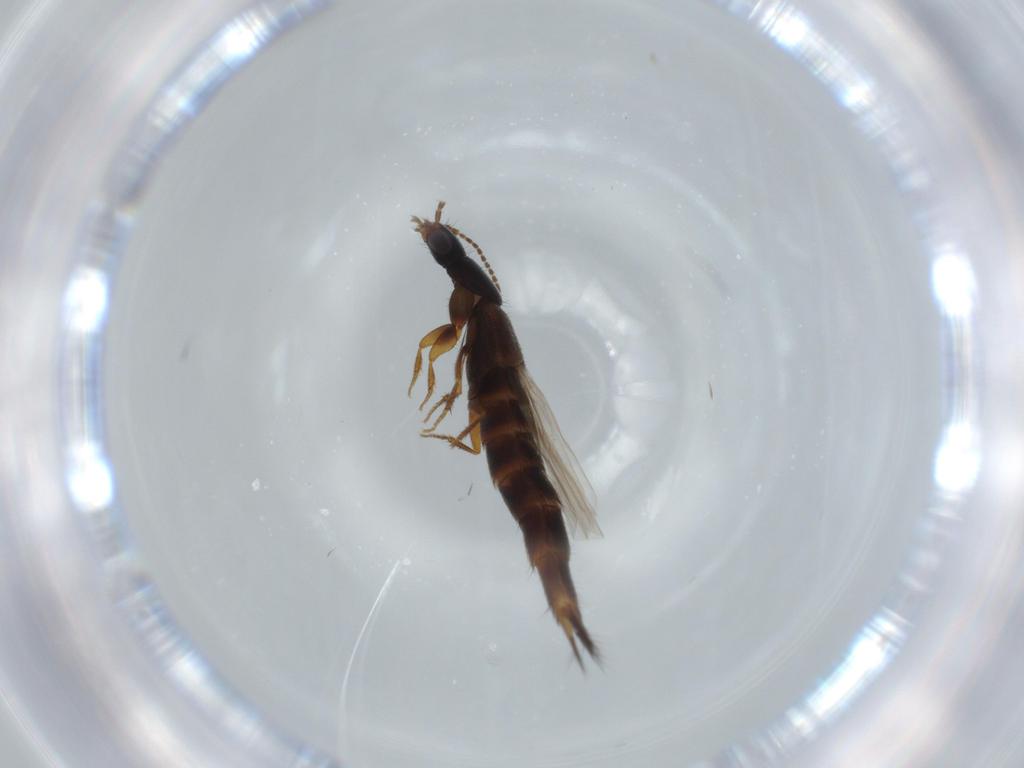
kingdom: Animalia
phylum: Arthropoda
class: Insecta
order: Coleoptera
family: Staphylinidae
